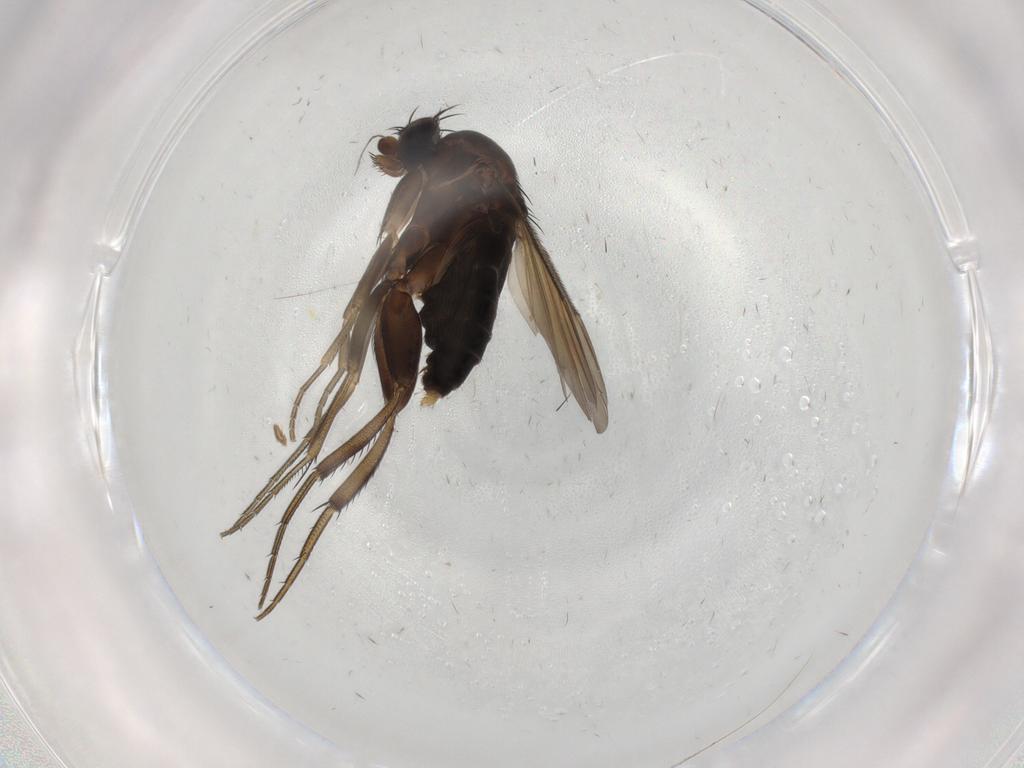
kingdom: Animalia
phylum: Arthropoda
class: Insecta
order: Diptera
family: Phoridae
